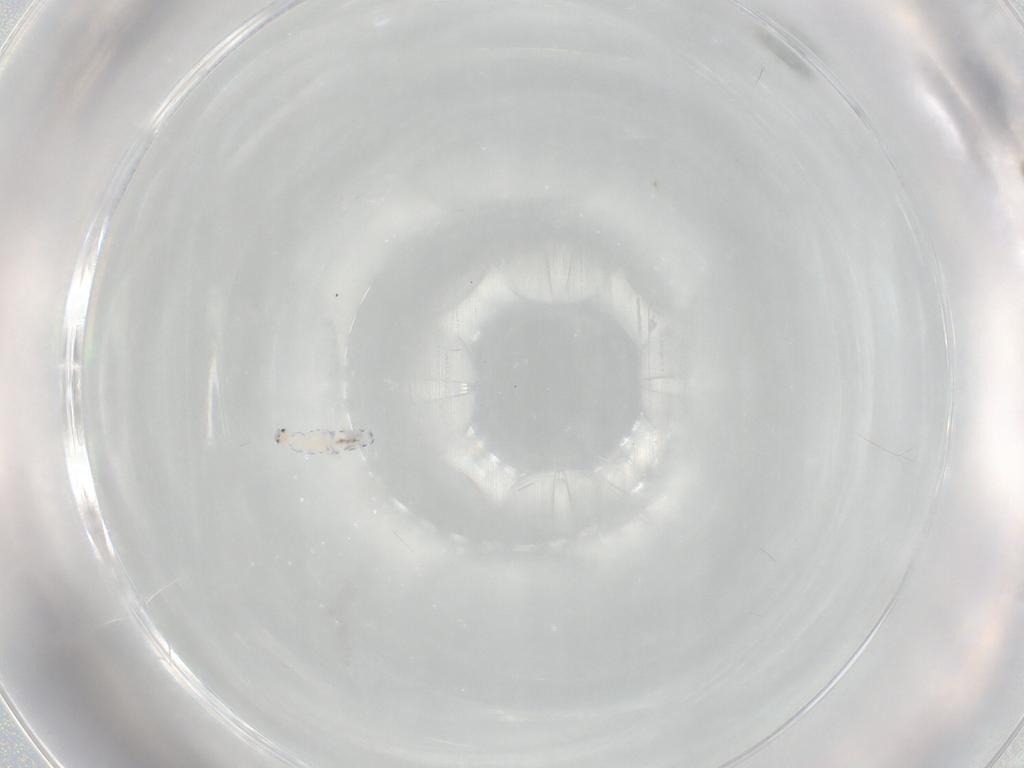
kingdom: Animalia
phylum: Arthropoda
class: Collembola
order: Entomobryomorpha
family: Entomobryidae
